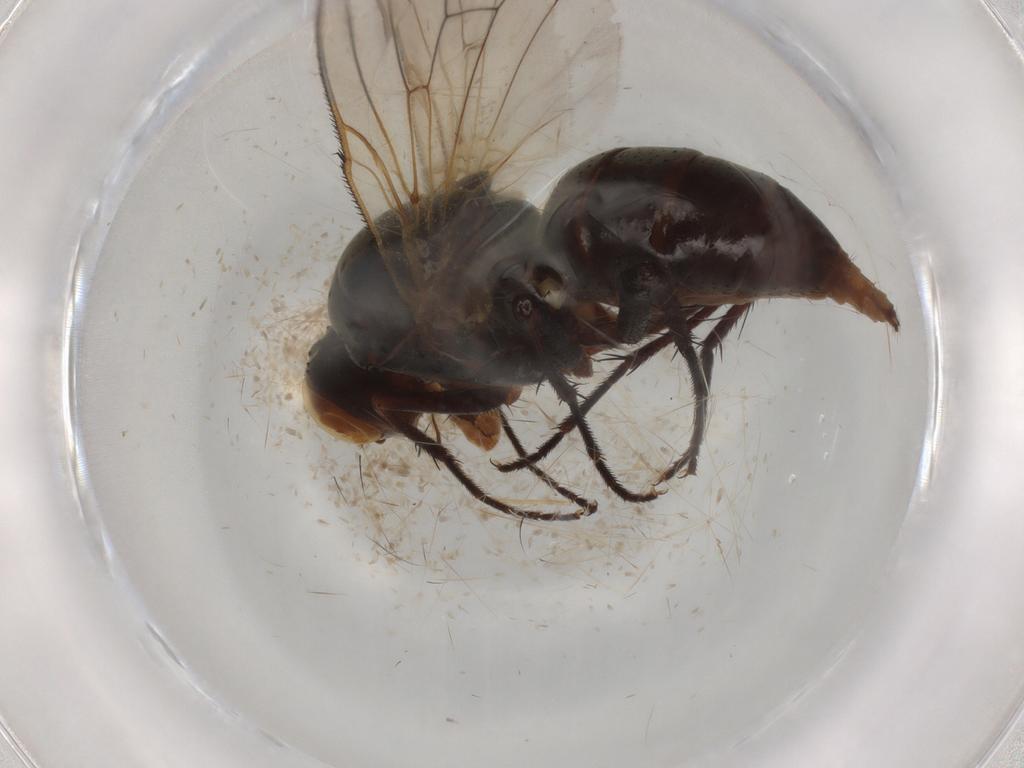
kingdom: Animalia
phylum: Arthropoda
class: Insecta
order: Diptera
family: Anthomyiidae
